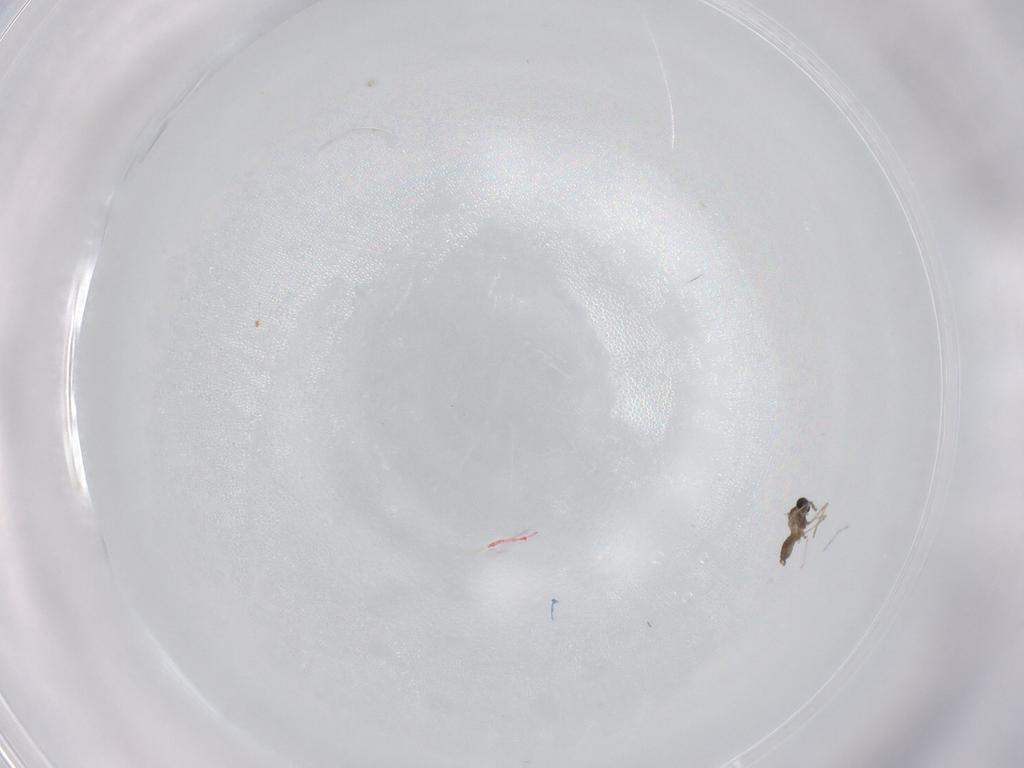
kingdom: Animalia
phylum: Arthropoda
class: Insecta
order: Diptera
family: Cecidomyiidae
